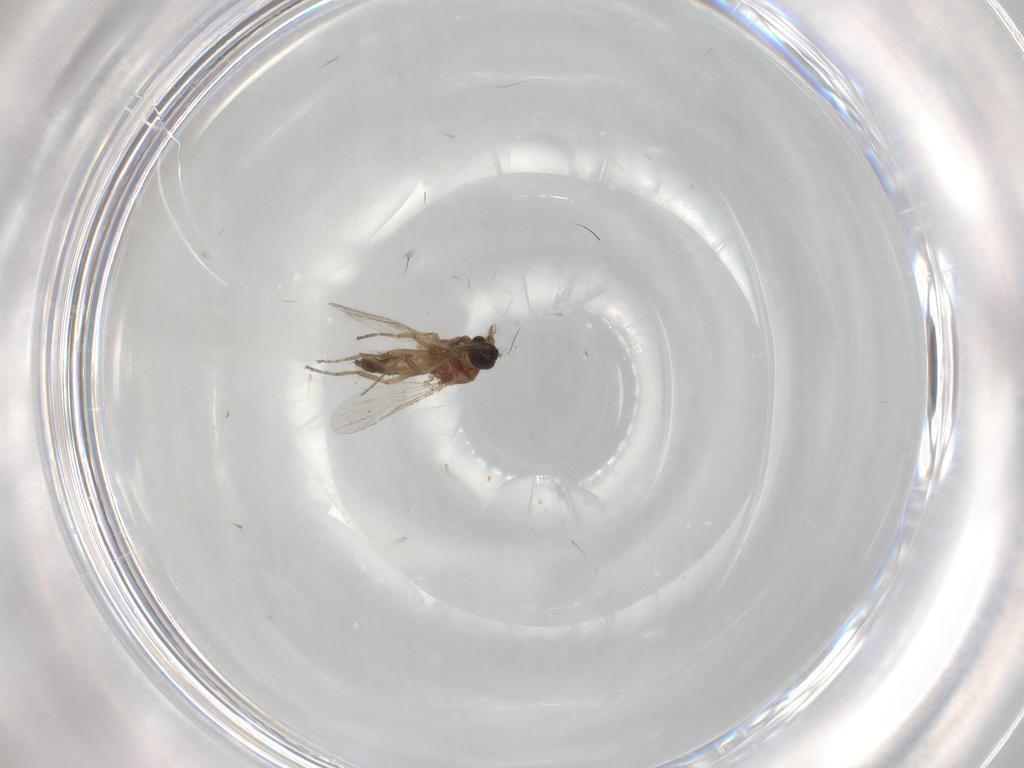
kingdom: Animalia
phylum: Arthropoda
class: Insecta
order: Diptera
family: Ceratopogonidae
